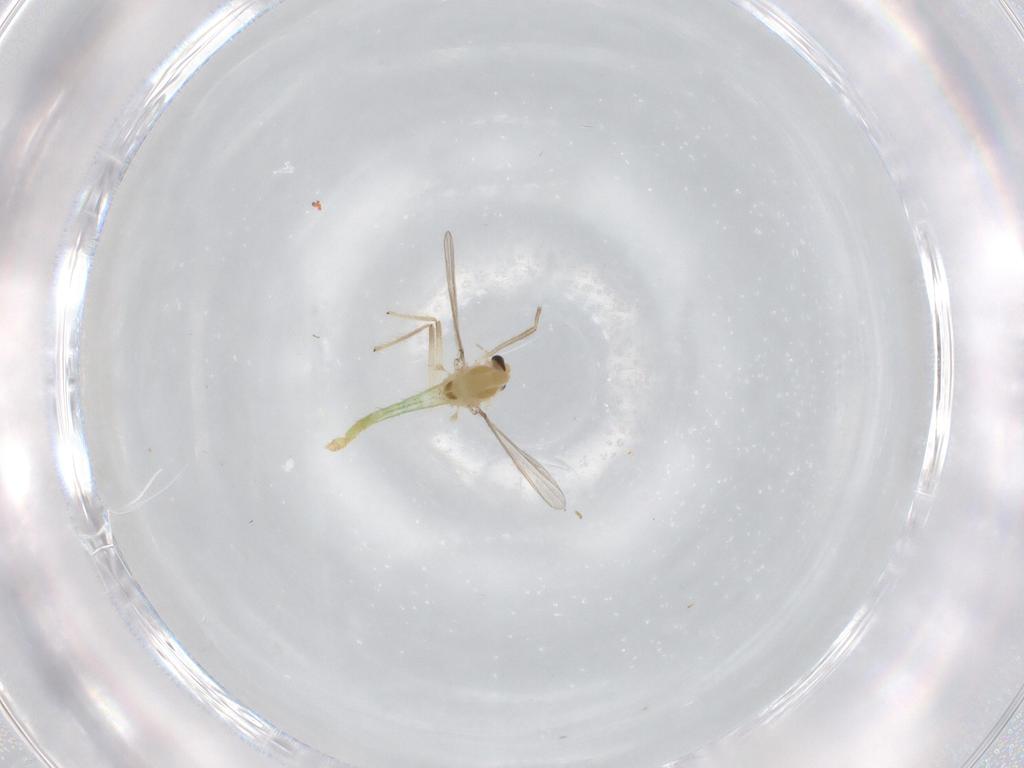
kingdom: Animalia
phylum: Arthropoda
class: Insecta
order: Diptera
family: Chironomidae
